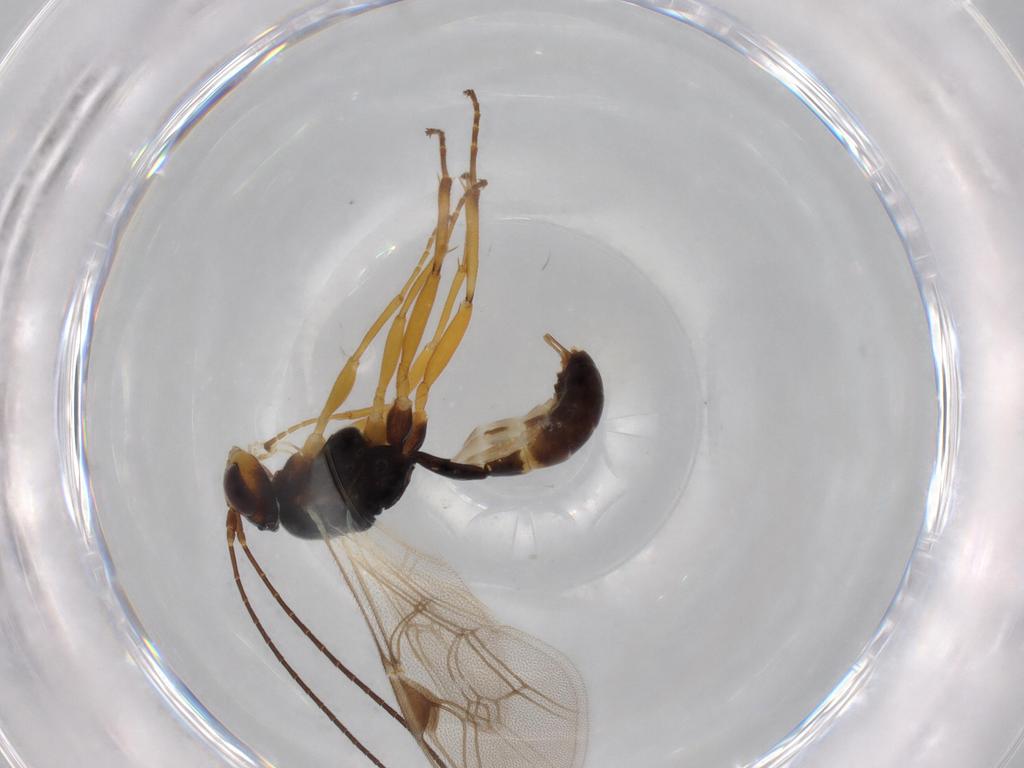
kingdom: Animalia
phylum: Arthropoda
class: Insecta
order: Hymenoptera
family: Ichneumonidae
